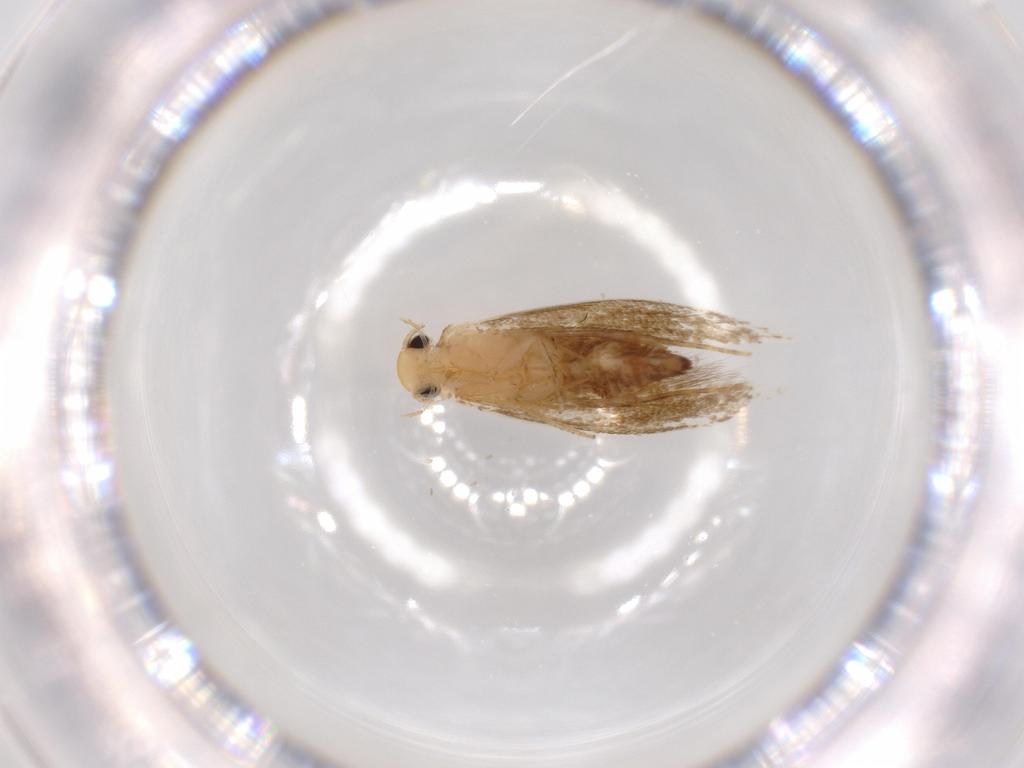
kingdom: Animalia
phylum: Arthropoda
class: Insecta
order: Lepidoptera
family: Tineidae
